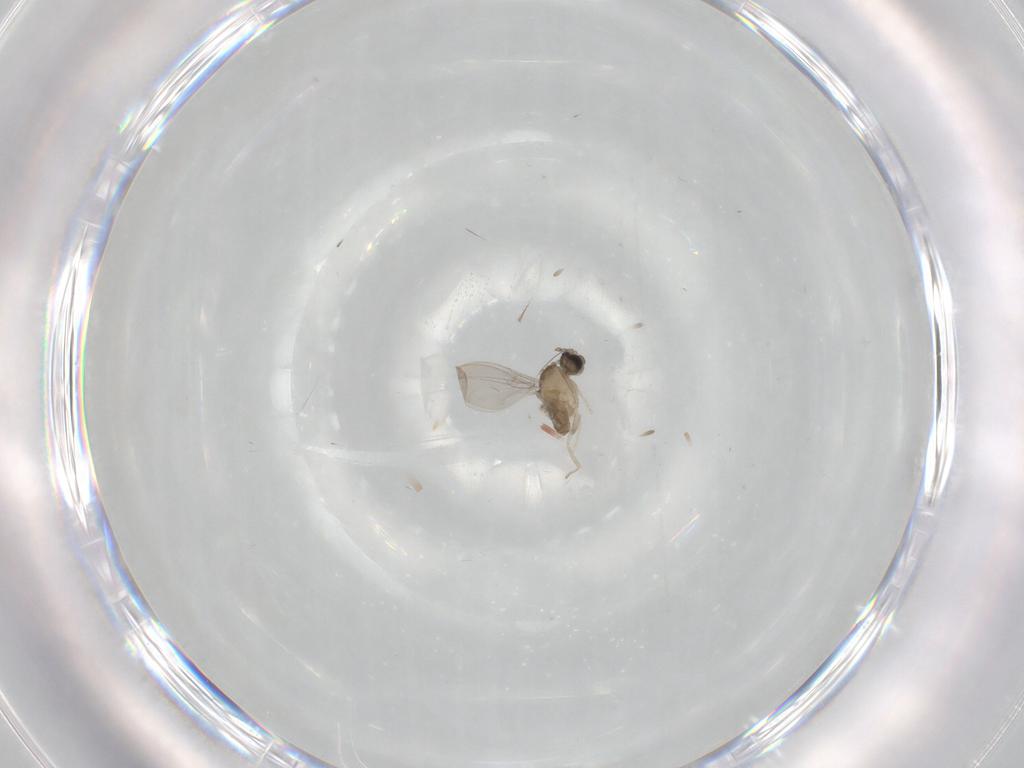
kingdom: Animalia
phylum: Arthropoda
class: Insecta
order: Diptera
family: Cecidomyiidae
